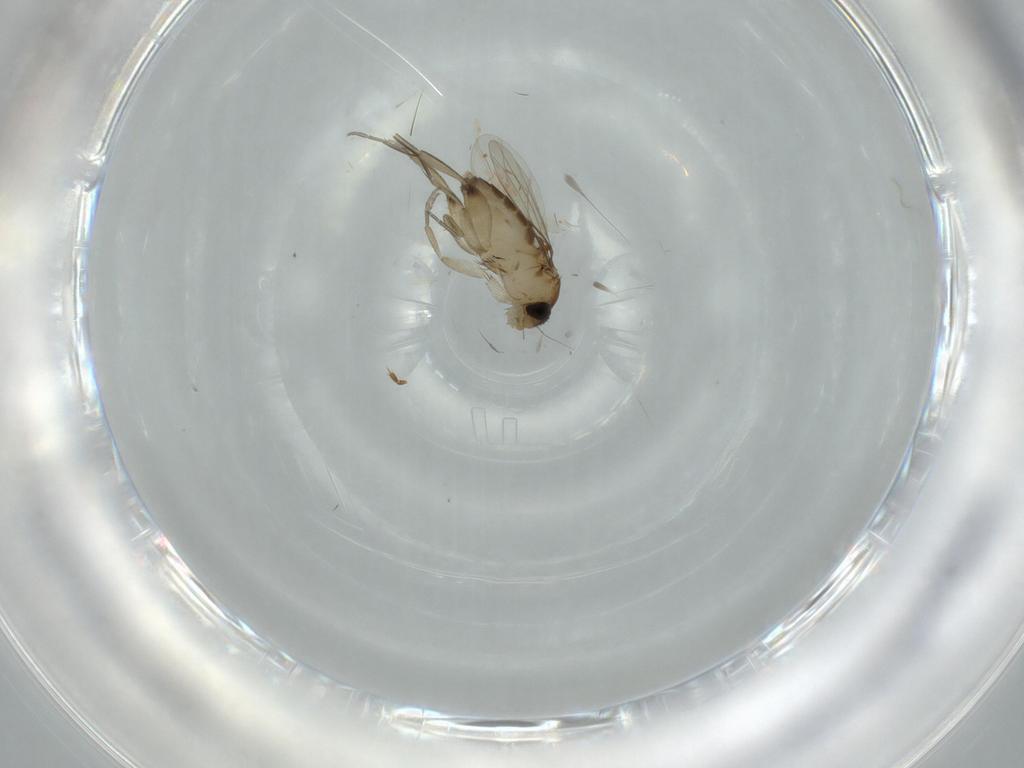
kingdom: Animalia
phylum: Arthropoda
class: Insecta
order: Diptera
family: Phoridae
